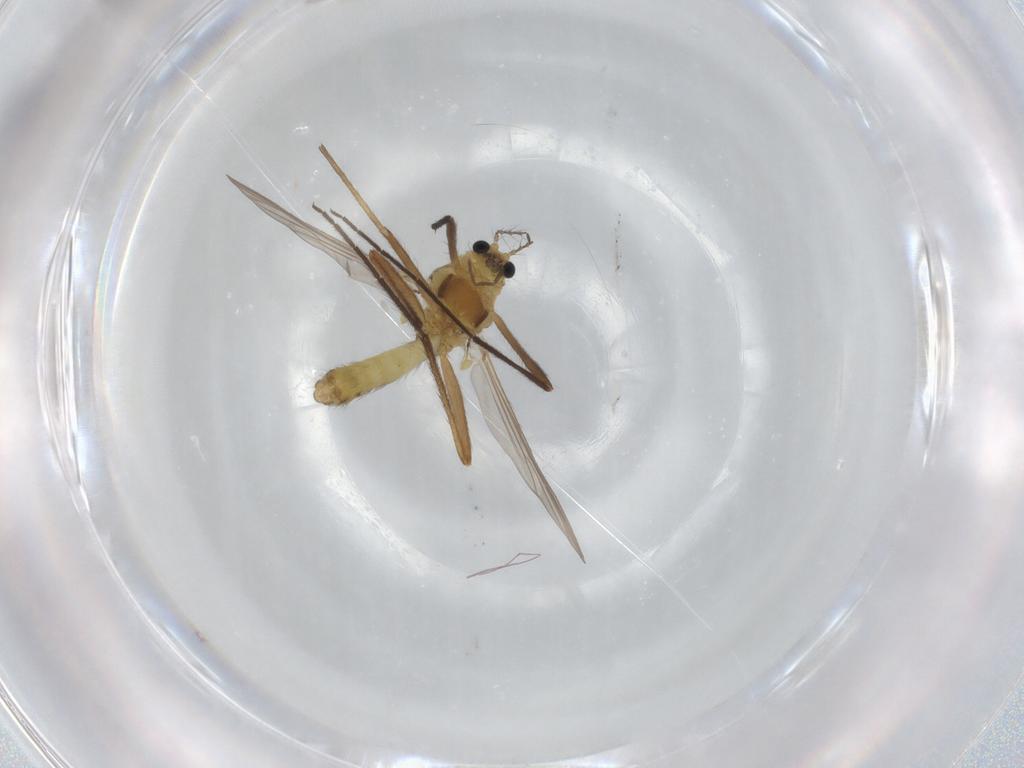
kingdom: Animalia
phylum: Arthropoda
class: Insecta
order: Diptera
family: Chironomidae
